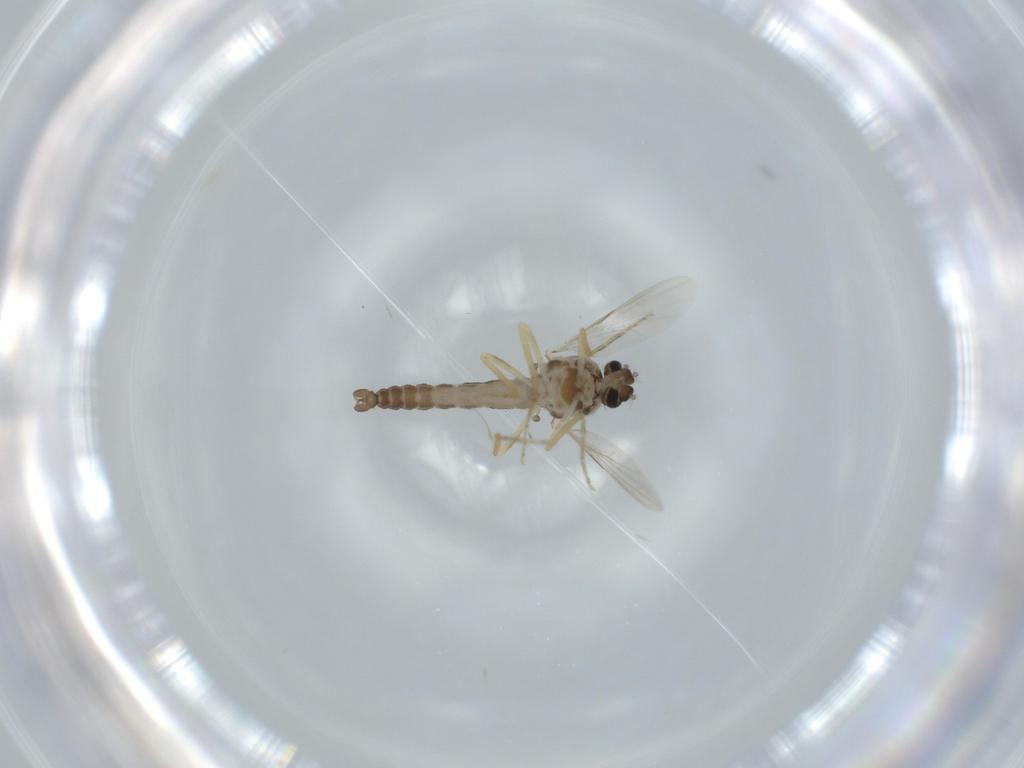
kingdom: Animalia
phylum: Arthropoda
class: Insecta
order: Diptera
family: Ceratopogonidae
